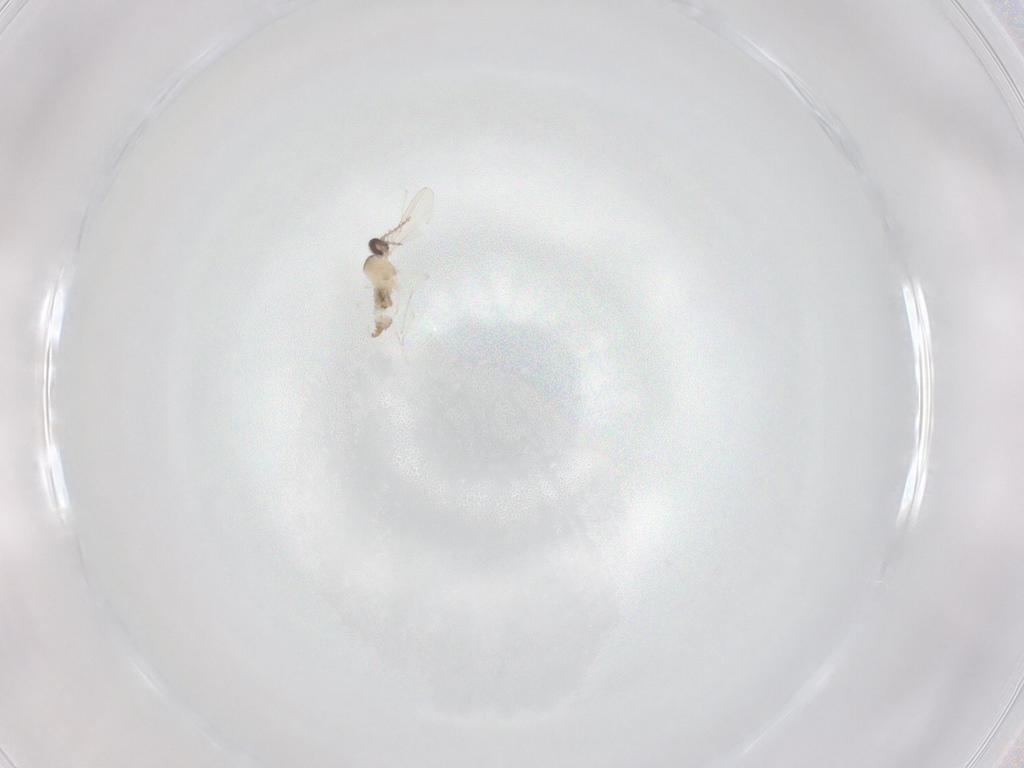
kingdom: Animalia
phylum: Arthropoda
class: Insecta
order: Diptera
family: Cecidomyiidae
